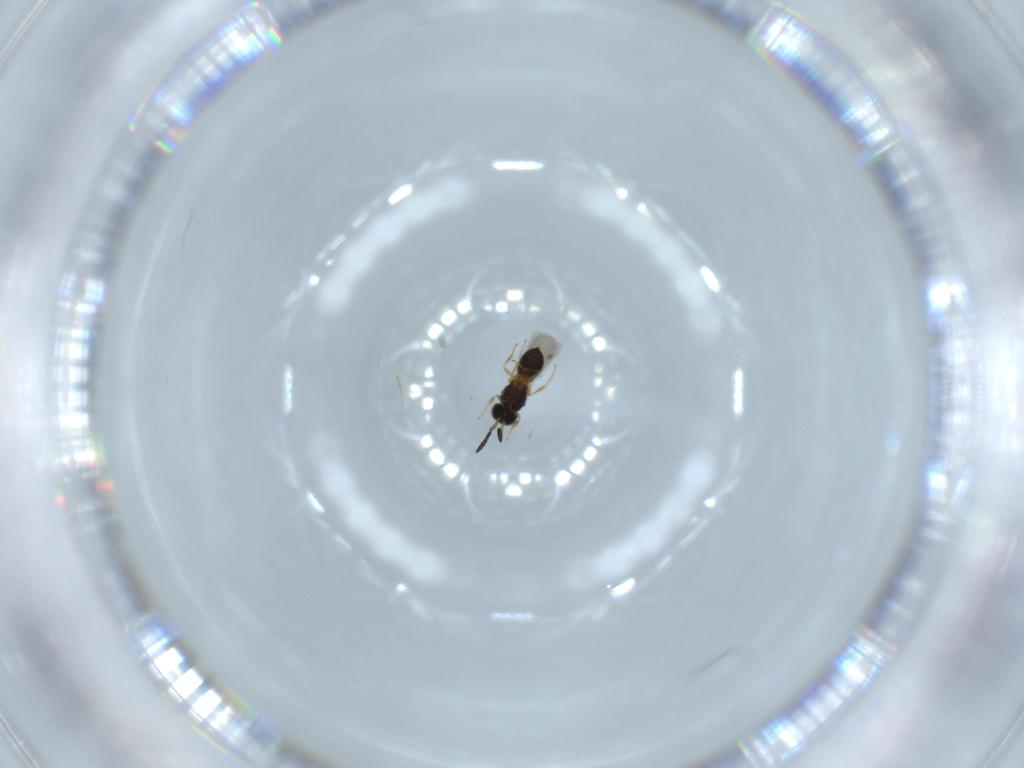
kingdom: Animalia
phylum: Arthropoda
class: Insecta
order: Hymenoptera
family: Scelionidae
